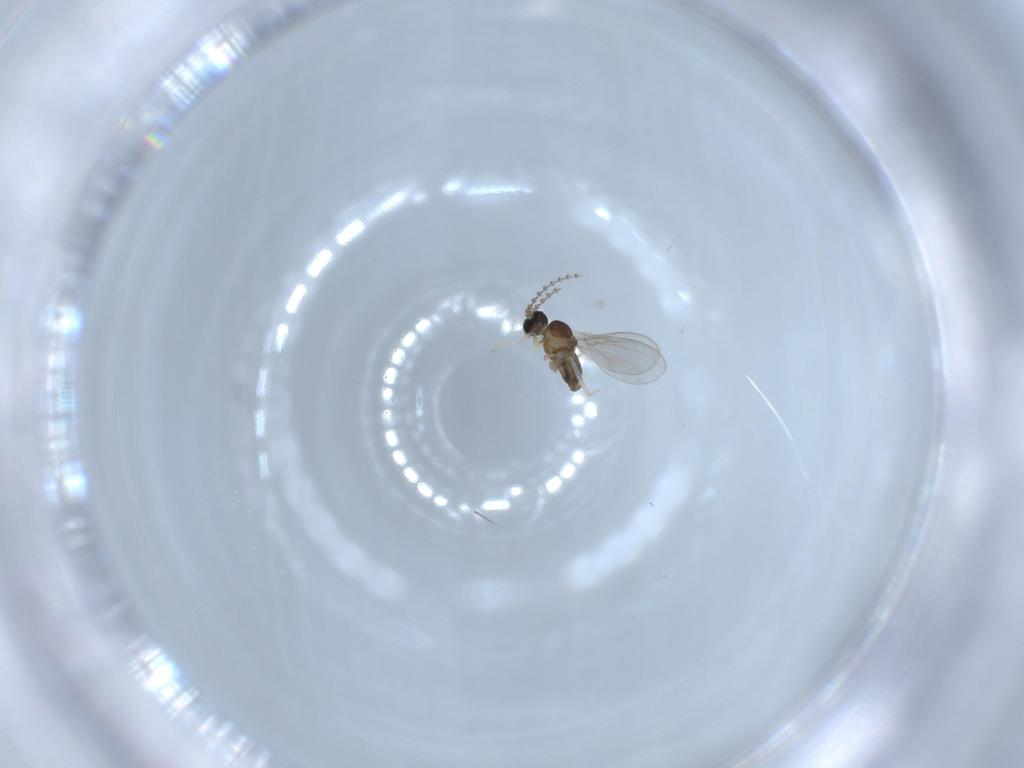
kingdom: Animalia
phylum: Arthropoda
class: Insecta
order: Diptera
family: Cecidomyiidae
